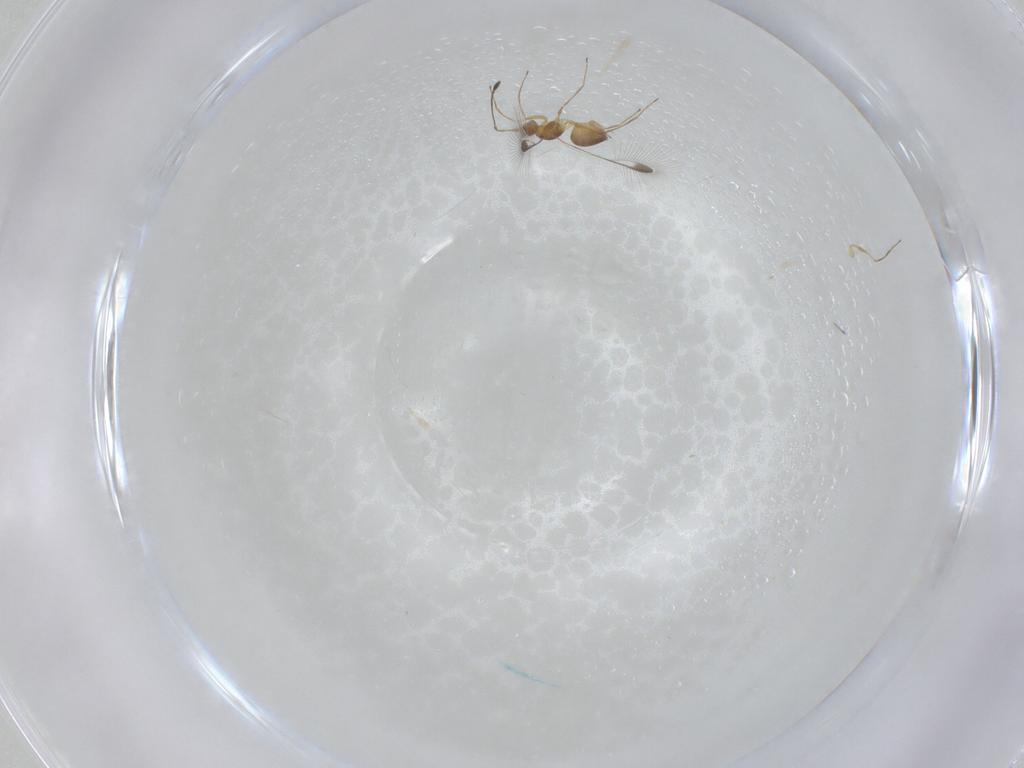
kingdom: Animalia
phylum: Arthropoda
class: Insecta
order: Hymenoptera
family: Mymaridae
